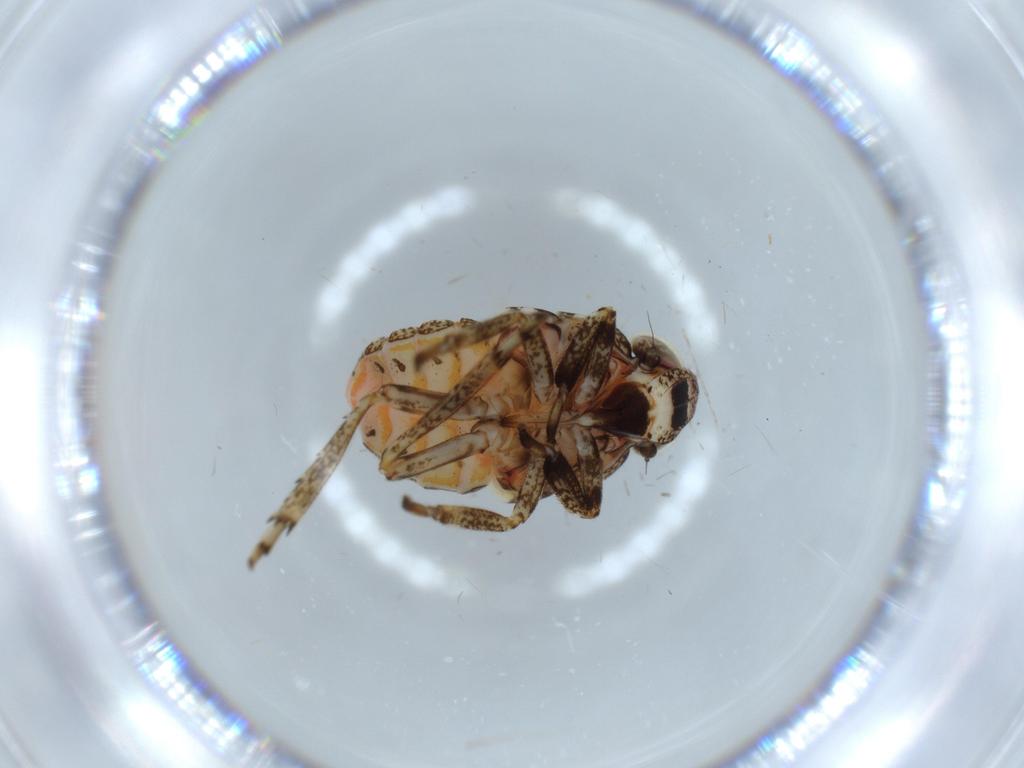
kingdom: Animalia
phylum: Arthropoda
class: Insecta
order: Hemiptera
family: Issidae
